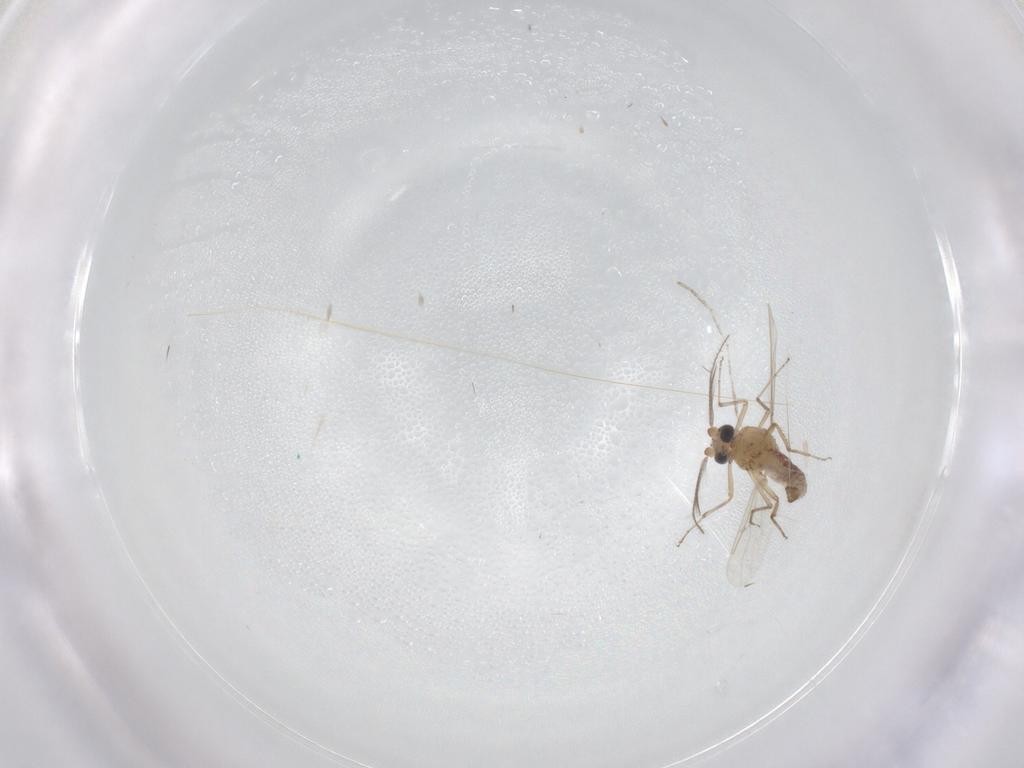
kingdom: Animalia
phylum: Arthropoda
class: Insecta
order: Diptera
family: Cecidomyiidae
